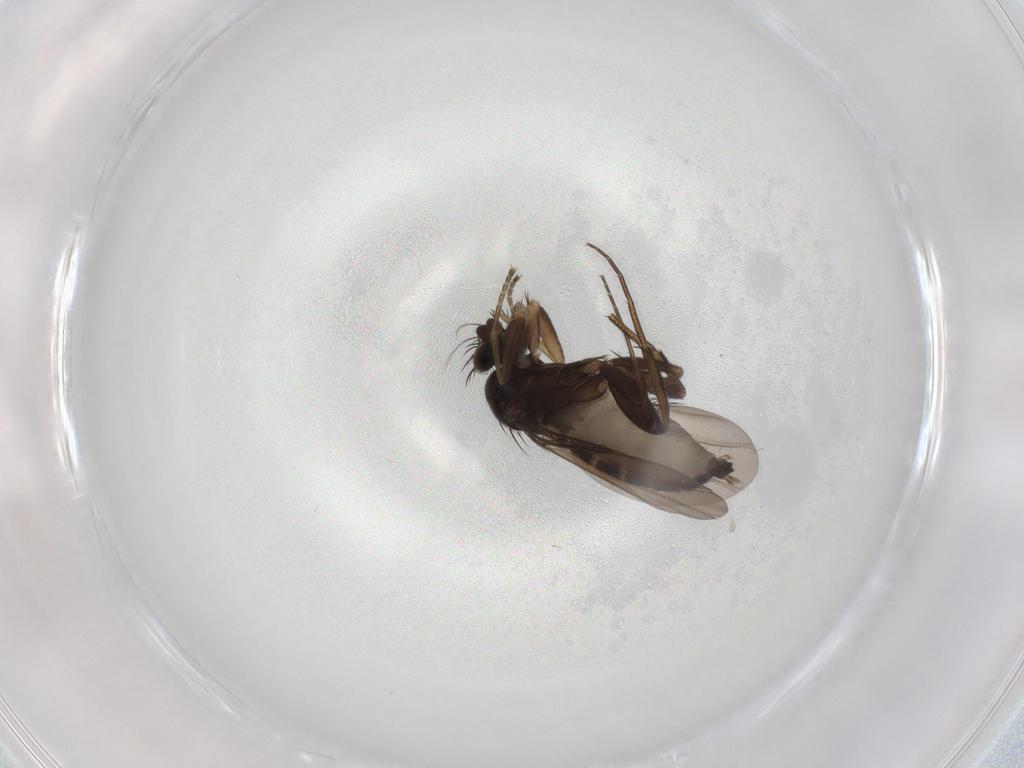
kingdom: Animalia
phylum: Arthropoda
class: Insecta
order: Diptera
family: Phoridae
